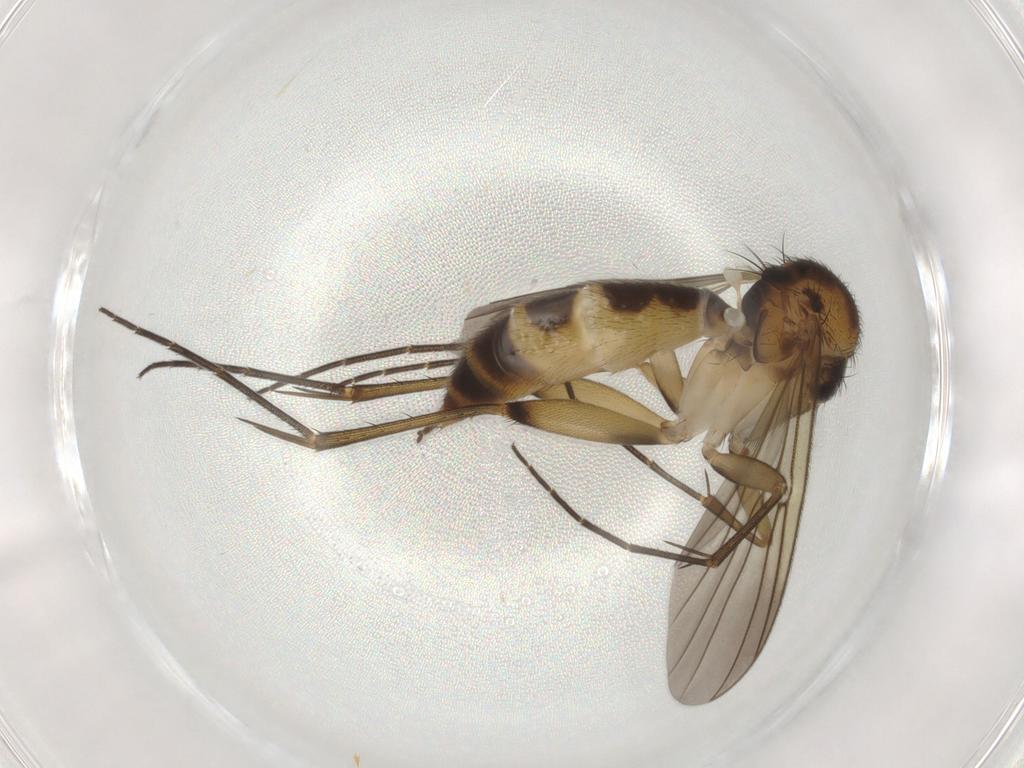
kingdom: Animalia
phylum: Arthropoda
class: Insecta
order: Diptera
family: Mycetophilidae
